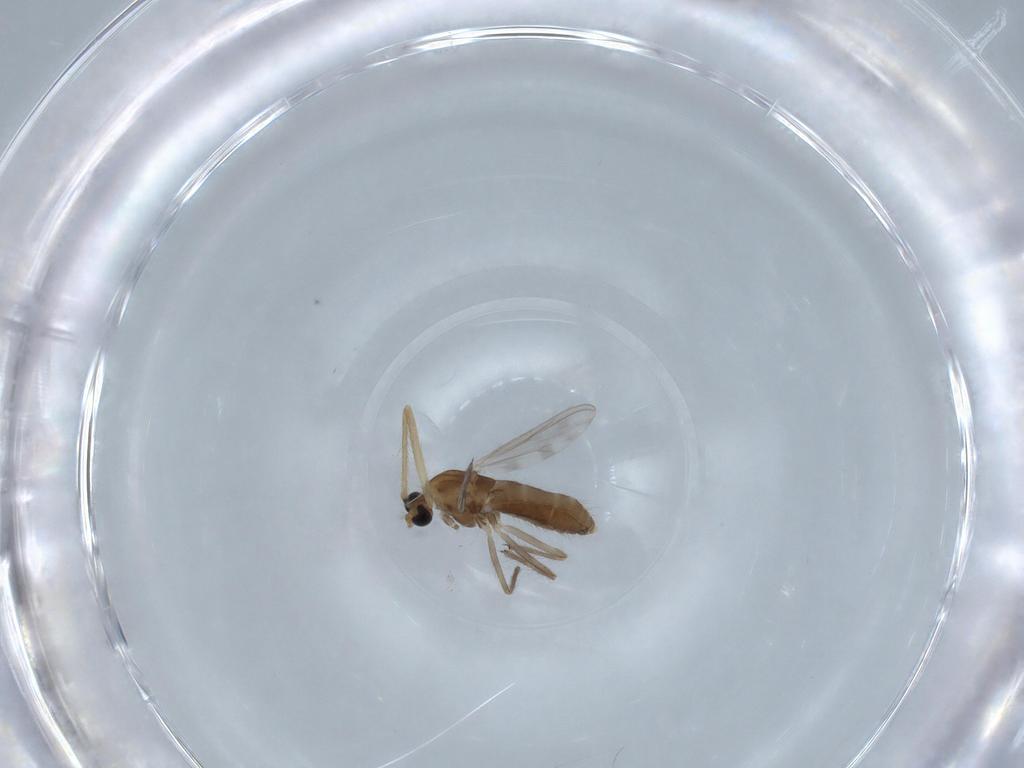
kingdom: Animalia
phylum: Arthropoda
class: Insecta
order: Diptera
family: Chironomidae
